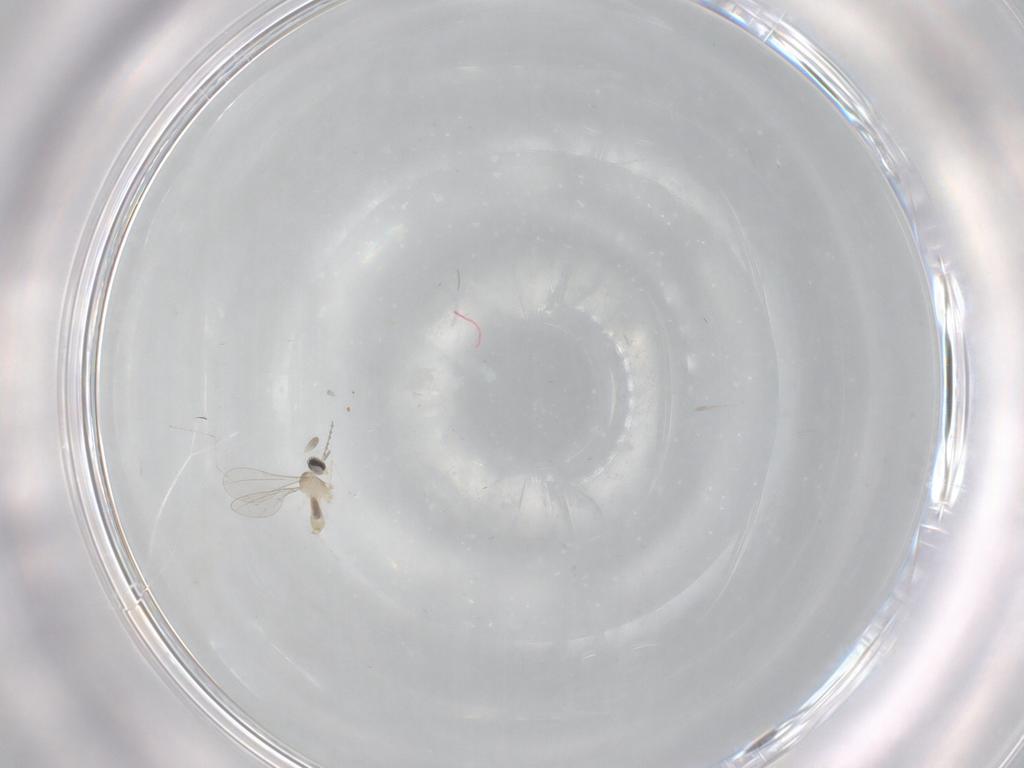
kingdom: Animalia
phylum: Arthropoda
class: Insecta
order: Diptera
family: Cecidomyiidae
